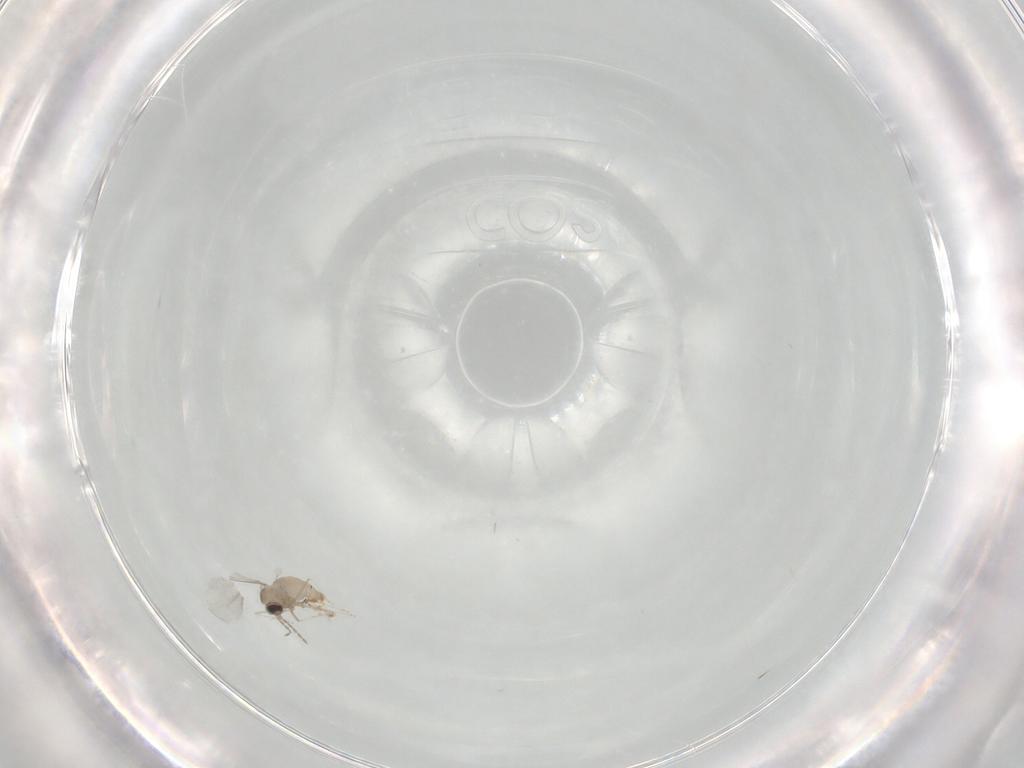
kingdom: Animalia
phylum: Arthropoda
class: Insecta
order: Diptera
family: Cecidomyiidae
